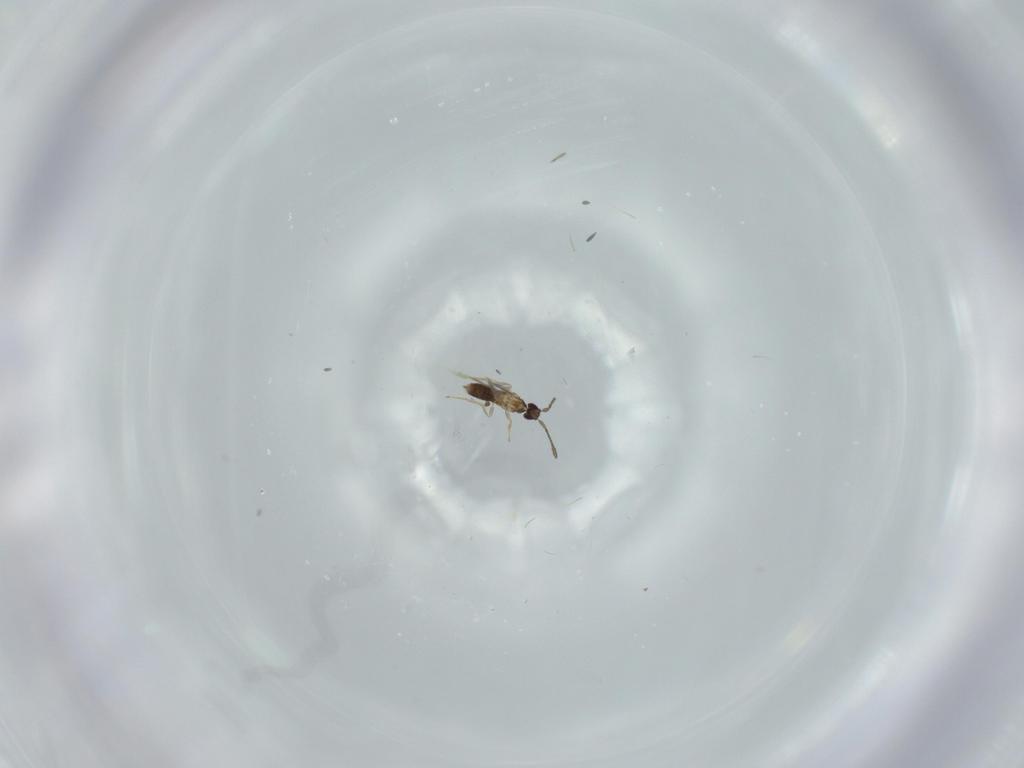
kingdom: Animalia
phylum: Arthropoda
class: Insecta
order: Hymenoptera
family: Mymaridae
